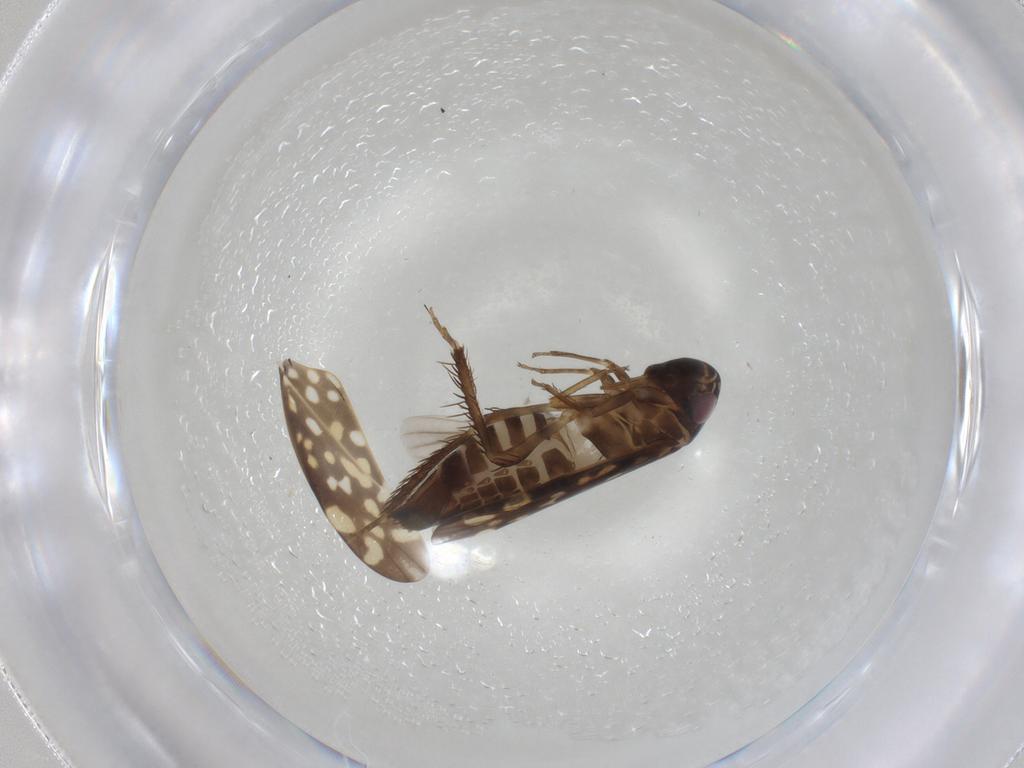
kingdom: Animalia
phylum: Arthropoda
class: Insecta
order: Hemiptera
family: Cicadellidae
